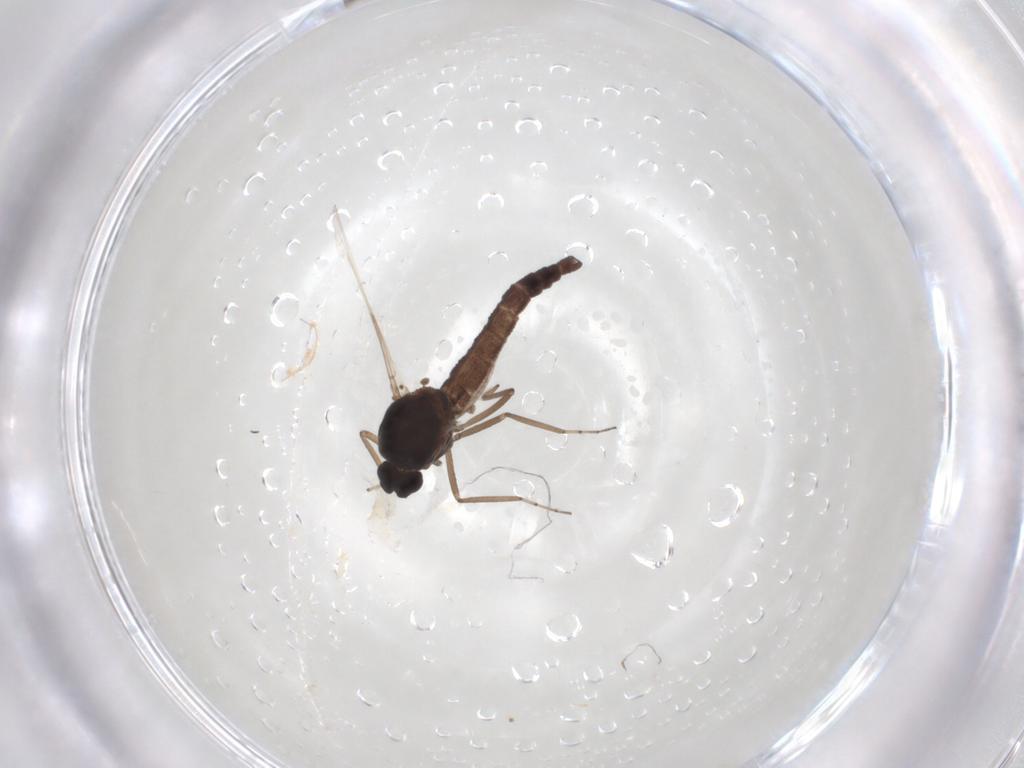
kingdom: Animalia
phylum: Arthropoda
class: Insecta
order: Diptera
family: Ceratopogonidae
